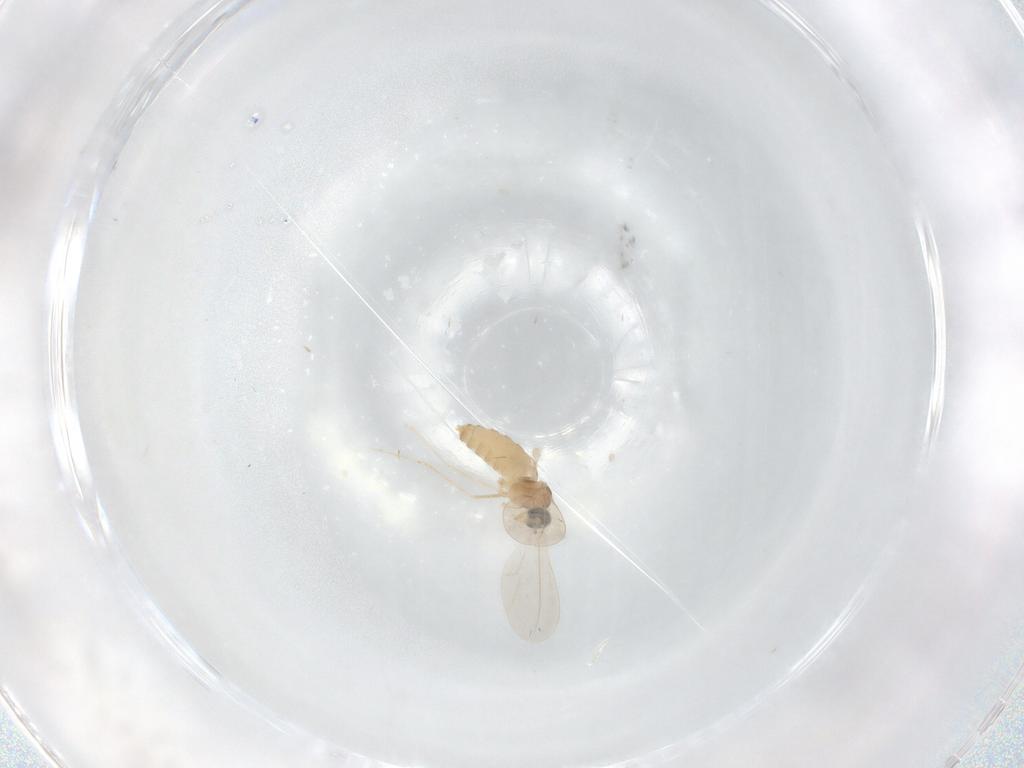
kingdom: Animalia
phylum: Arthropoda
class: Insecta
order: Diptera
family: Cecidomyiidae
